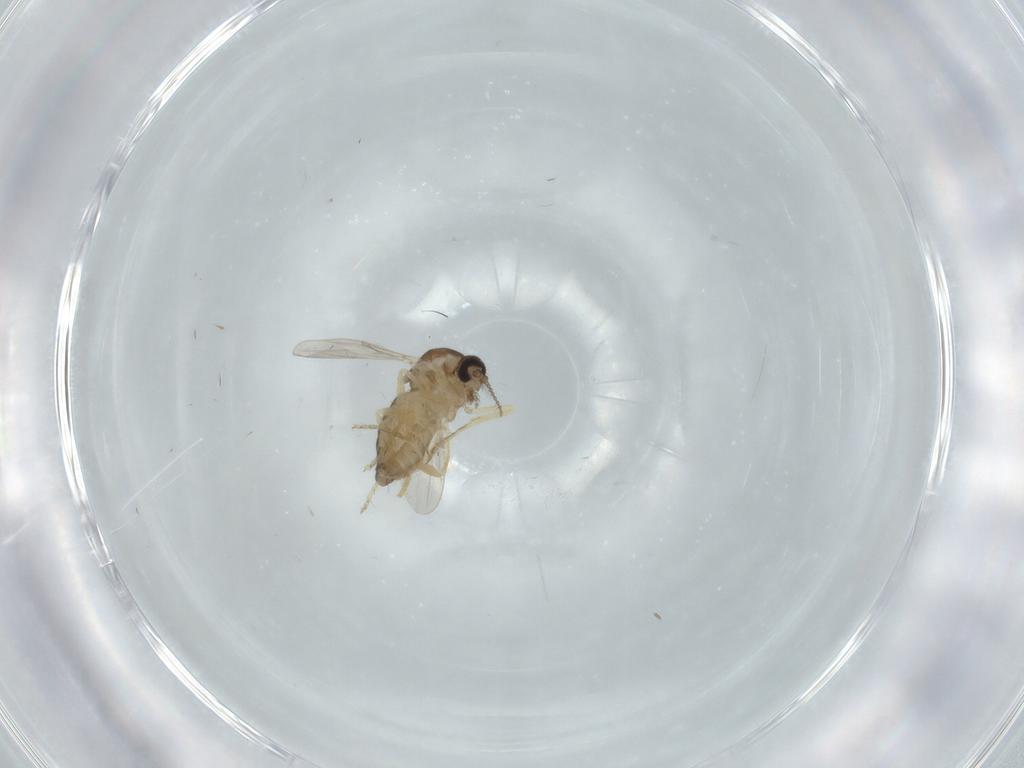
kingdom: Animalia
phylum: Arthropoda
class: Insecta
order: Diptera
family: Ceratopogonidae
